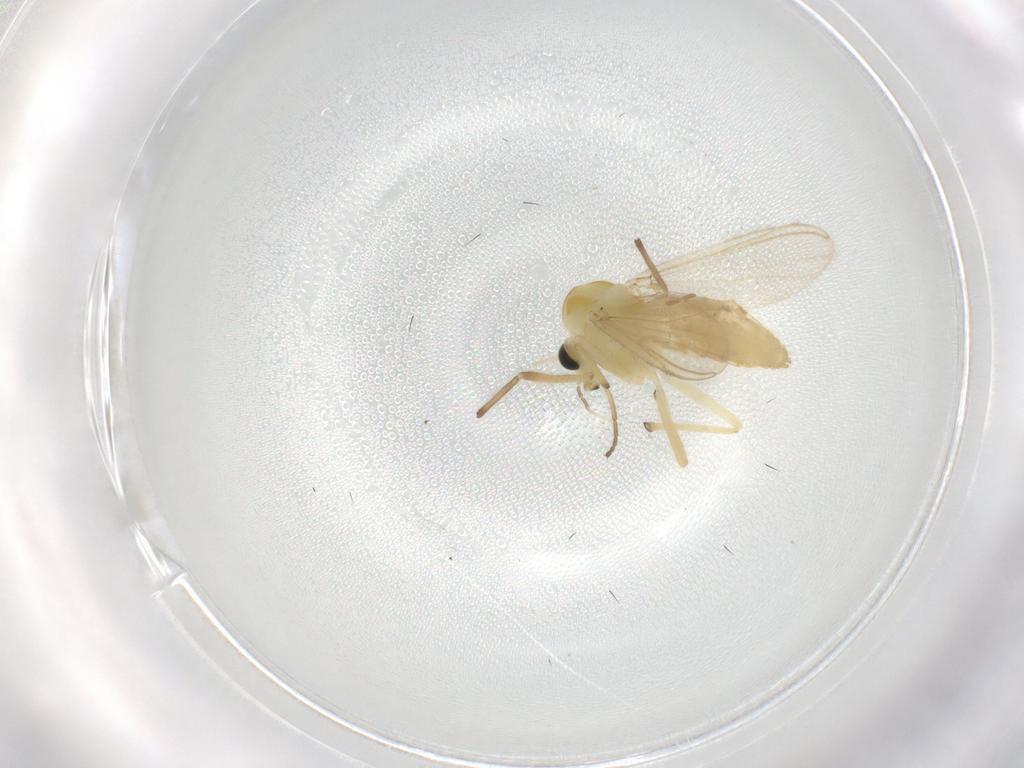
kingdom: Animalia
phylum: Arthropoda
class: Insecta
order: Diptera
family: Chironomidae
